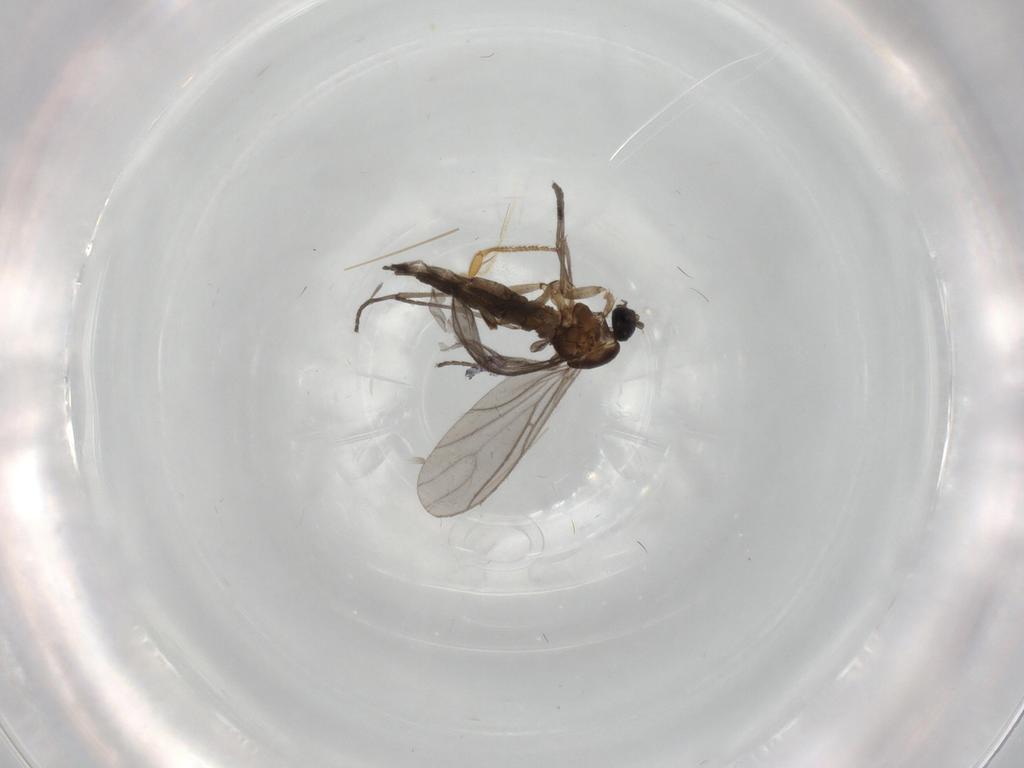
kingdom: Animalia
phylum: Arthropoda
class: Insecta
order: Diptera
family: Sciaridae
